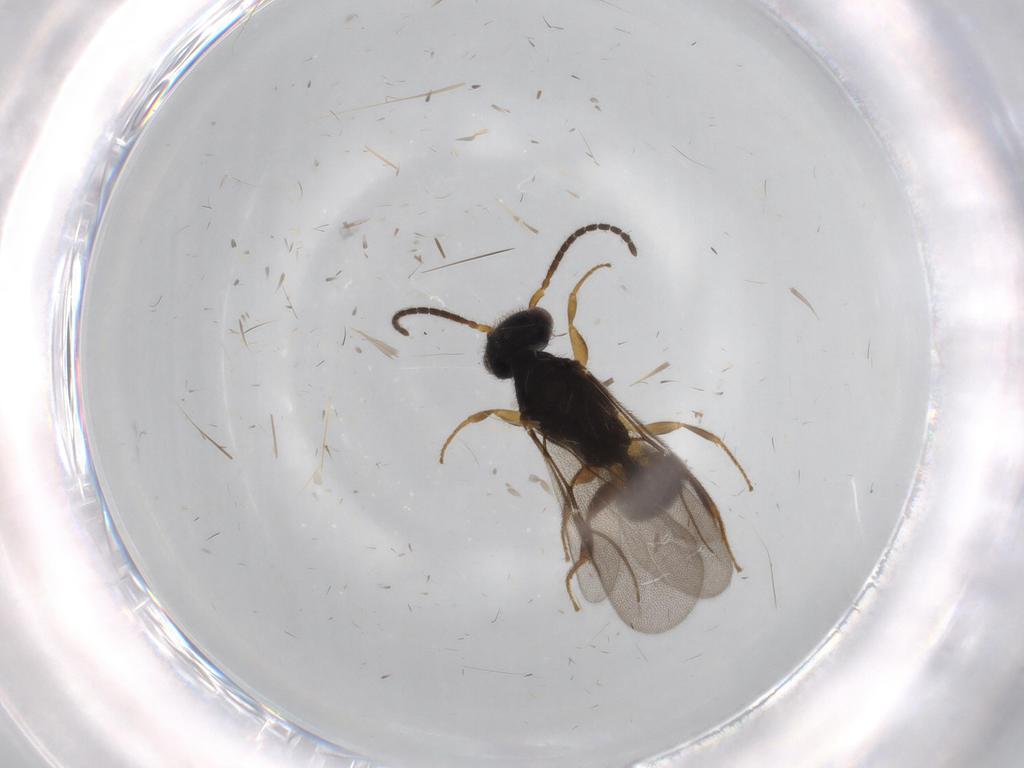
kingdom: Animalia
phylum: Arthropoda
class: Insecta
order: Hymenoptera
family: Bethylidae
